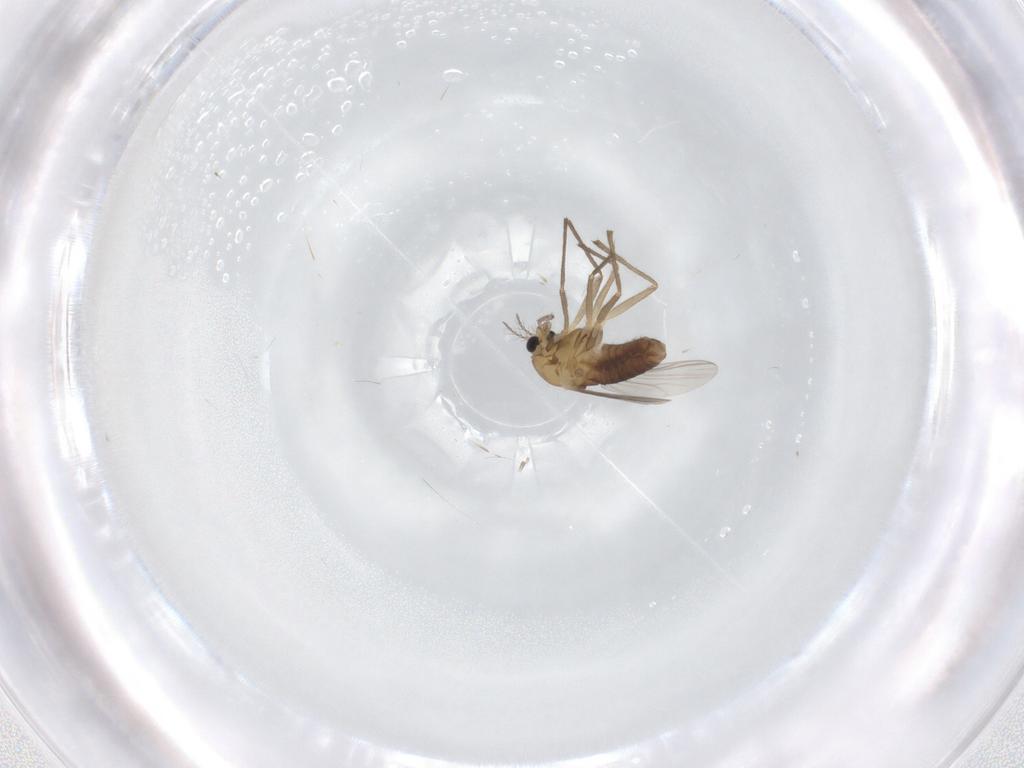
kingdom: Animalia
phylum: Arthropoda
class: Insecta
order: Diptera
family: Chironomidae
